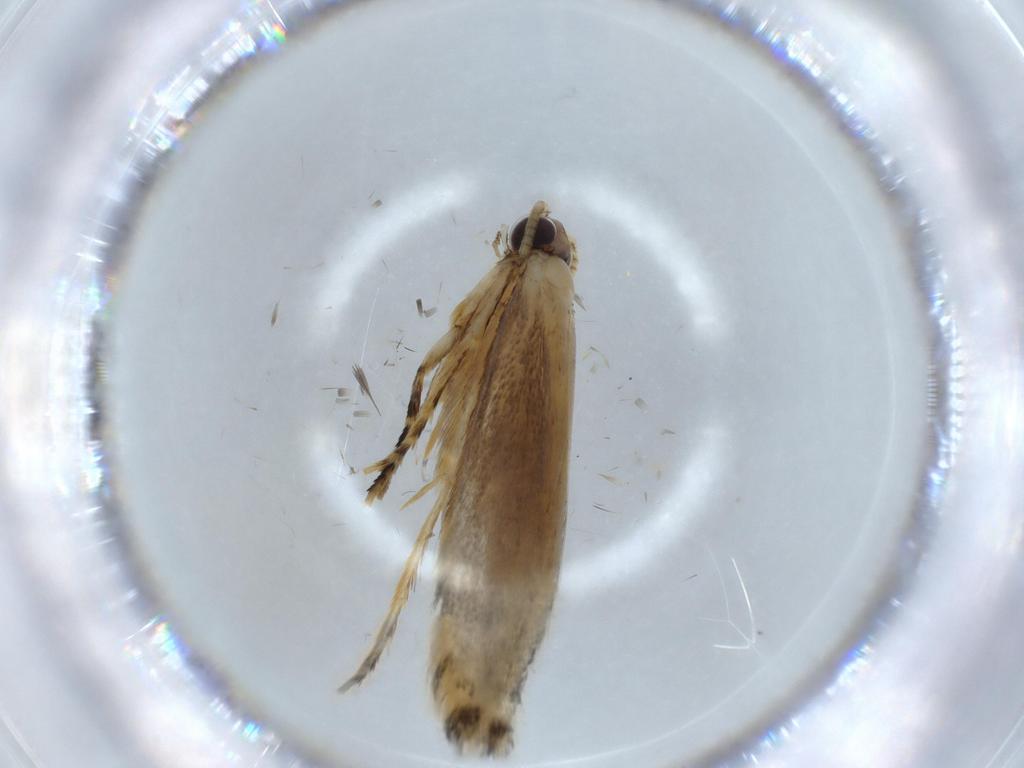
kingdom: Animalia
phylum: Arthropoda
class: Insecta
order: Lepidoptera
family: Tineidae
